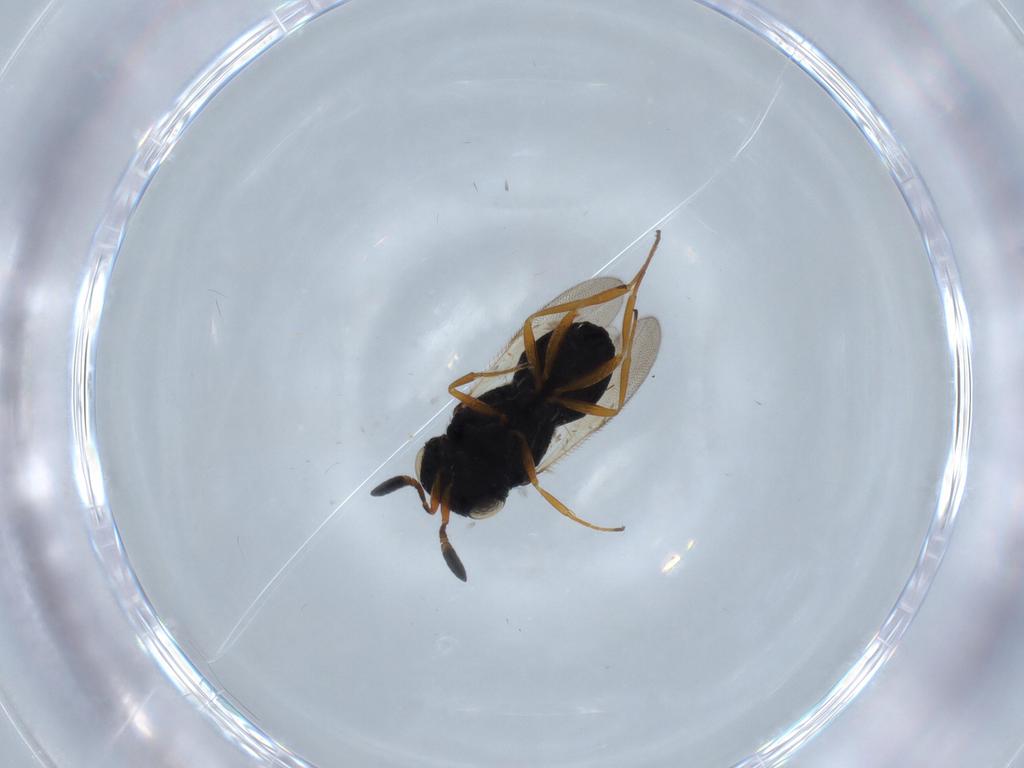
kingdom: Animalia
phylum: Arthropoda
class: Insecta
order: Hymenoptera
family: Scelionidae
